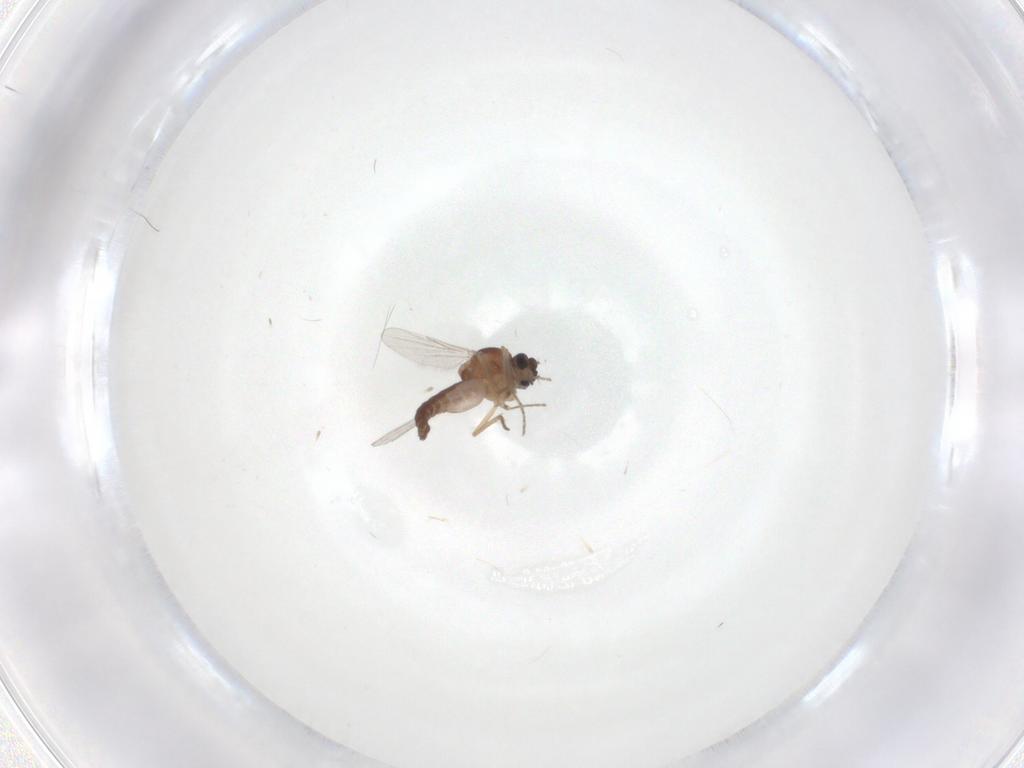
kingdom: Animalia
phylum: Arthropoda
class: Insecta
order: Diptera
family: Ceratopogonidae
